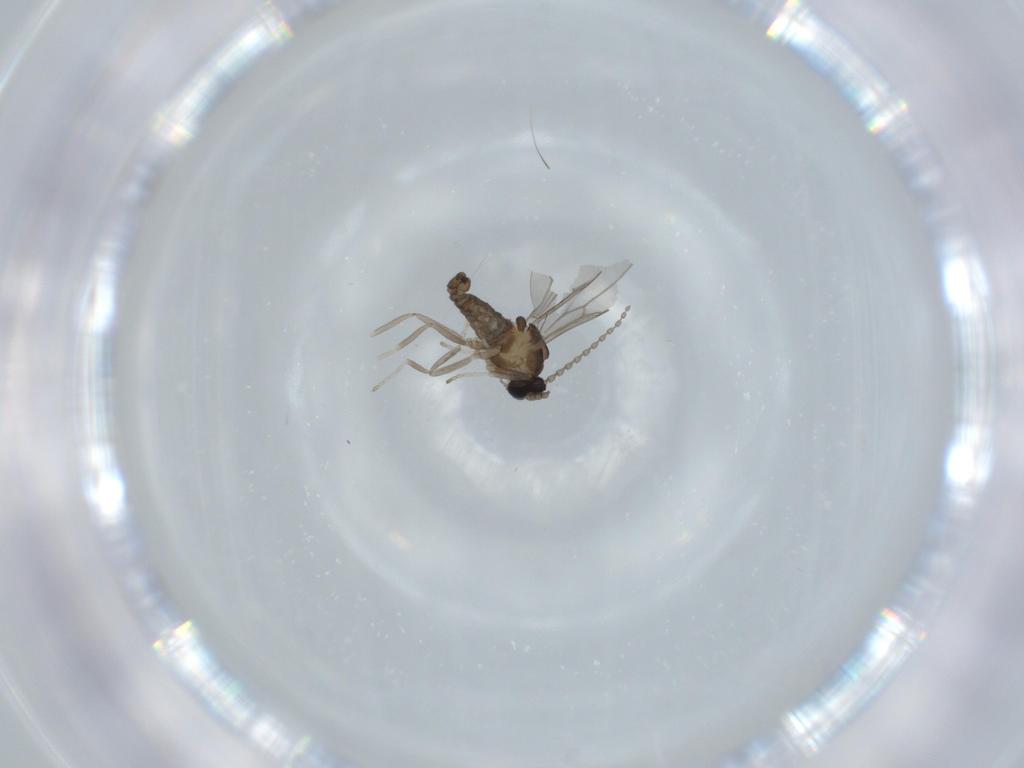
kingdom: Animalia
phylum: Arthropoda
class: Insecta
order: Diptera
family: Cecidomyiidae
